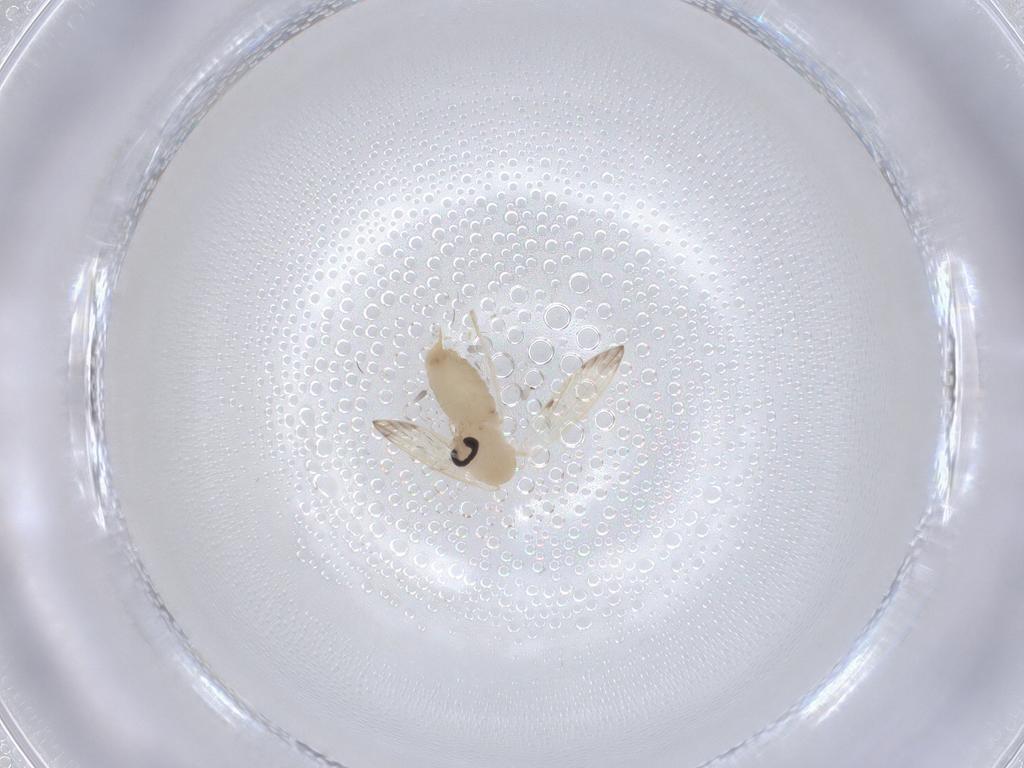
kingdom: Animalia
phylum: Arthropoda
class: Insecta
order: Diptera
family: Psychodidae
